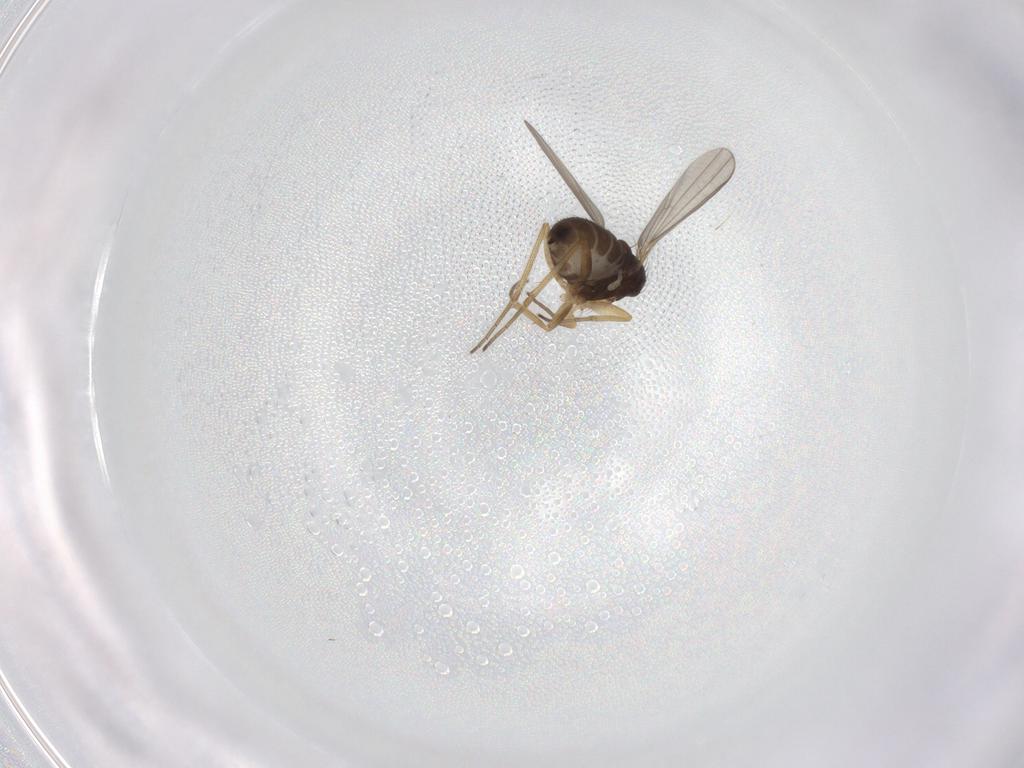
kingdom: Animalia
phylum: Arthropoda
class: Insecta
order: Diptera
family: Dolichopodidae
